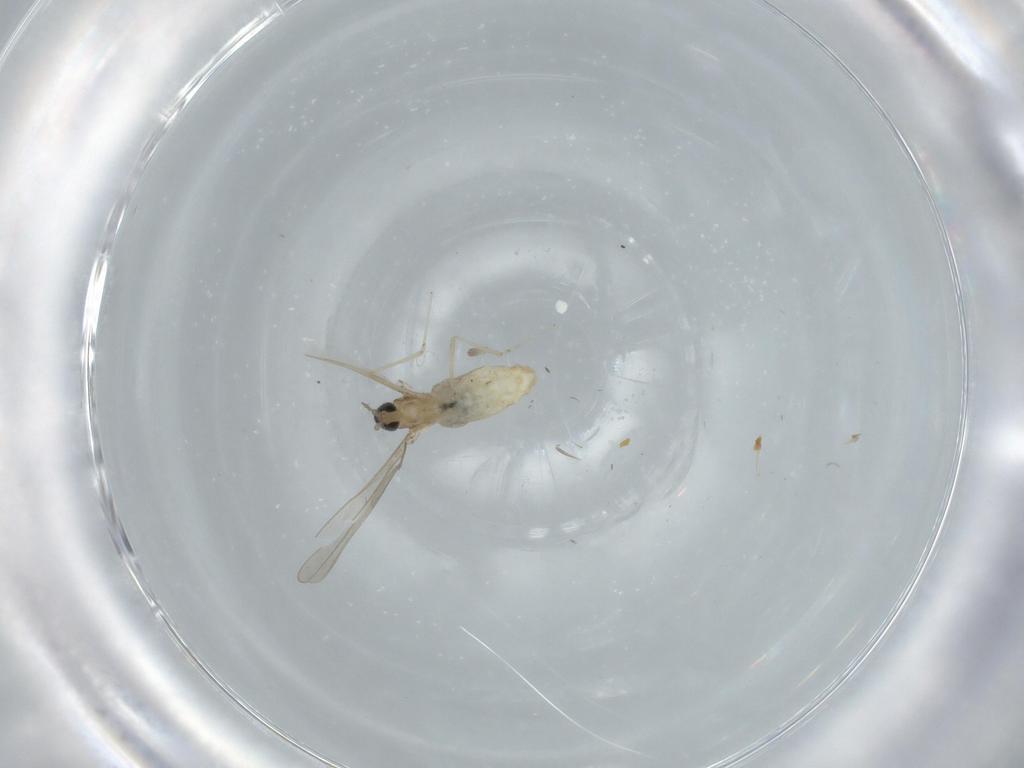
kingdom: Animalia
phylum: Arthropoda
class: Insecta
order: Diptera
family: Cecidomyiidae
